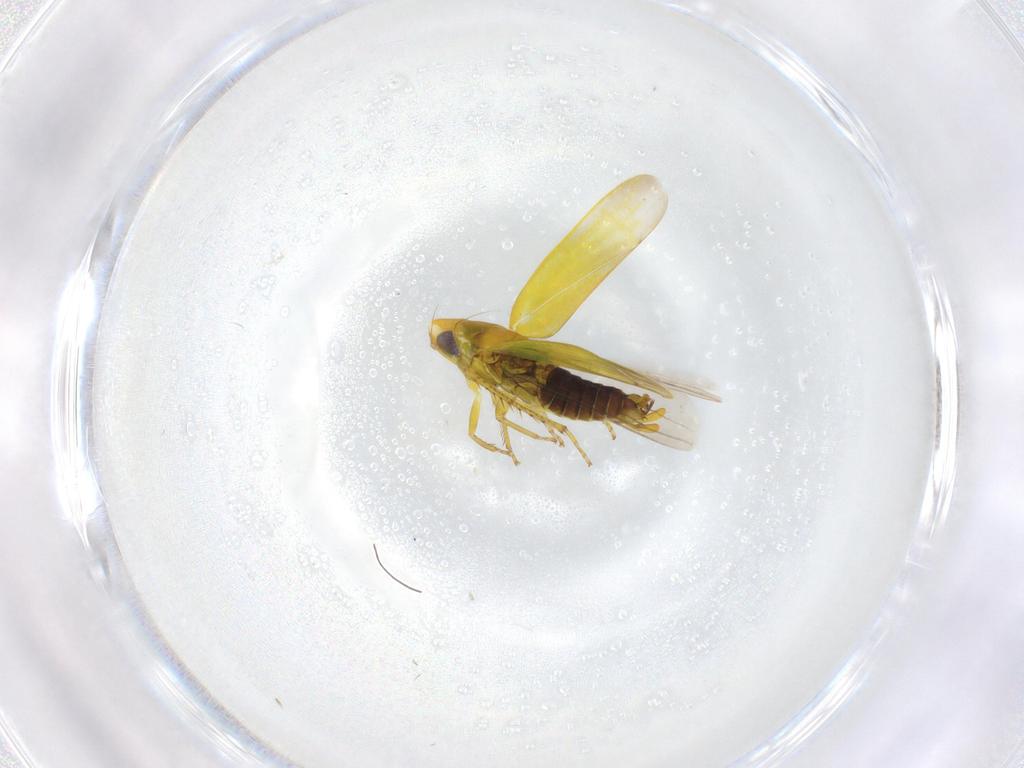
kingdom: Animalia
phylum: Arthropoda
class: Insecta
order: Hemiptera
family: Cicadellidae
